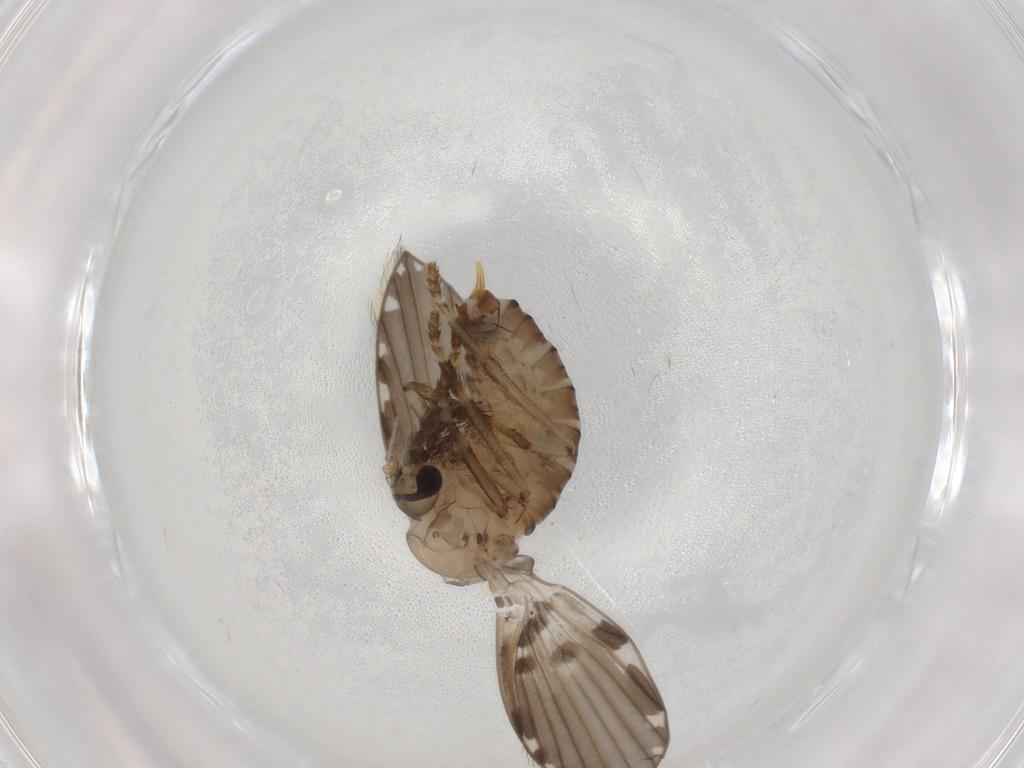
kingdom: Animalia
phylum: Arthropoda
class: Insecta
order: Diptera
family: Psychodidae
